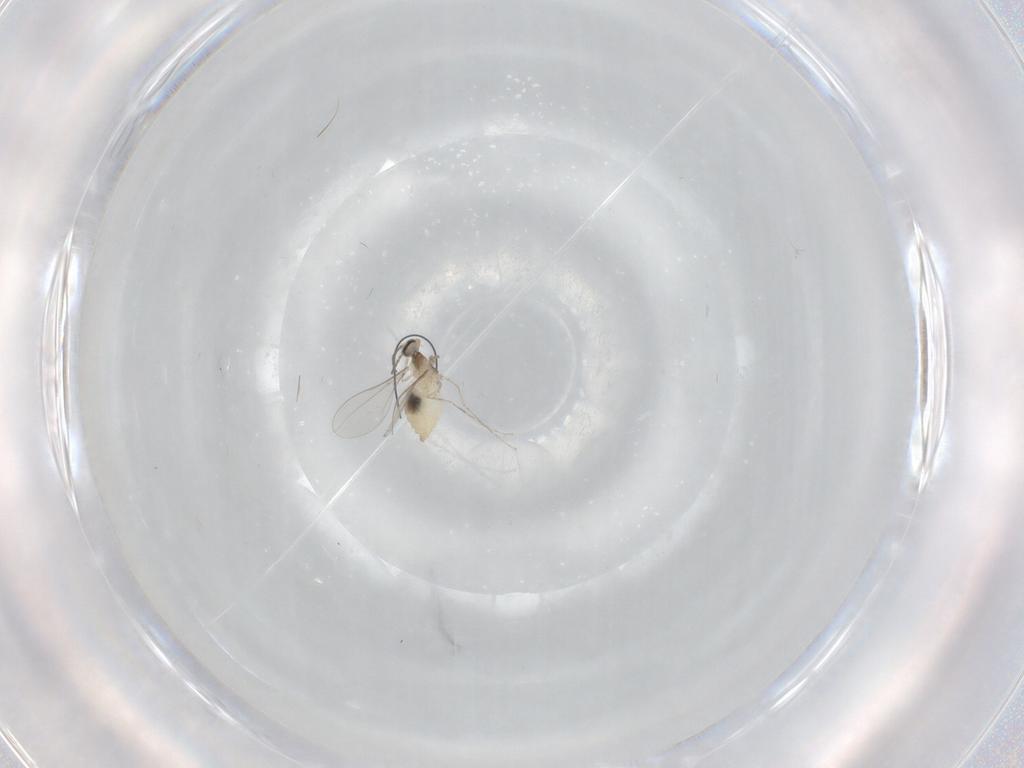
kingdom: Animalia
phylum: Arthropoda
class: Insecta
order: Diptera
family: Cecidomyiidae
